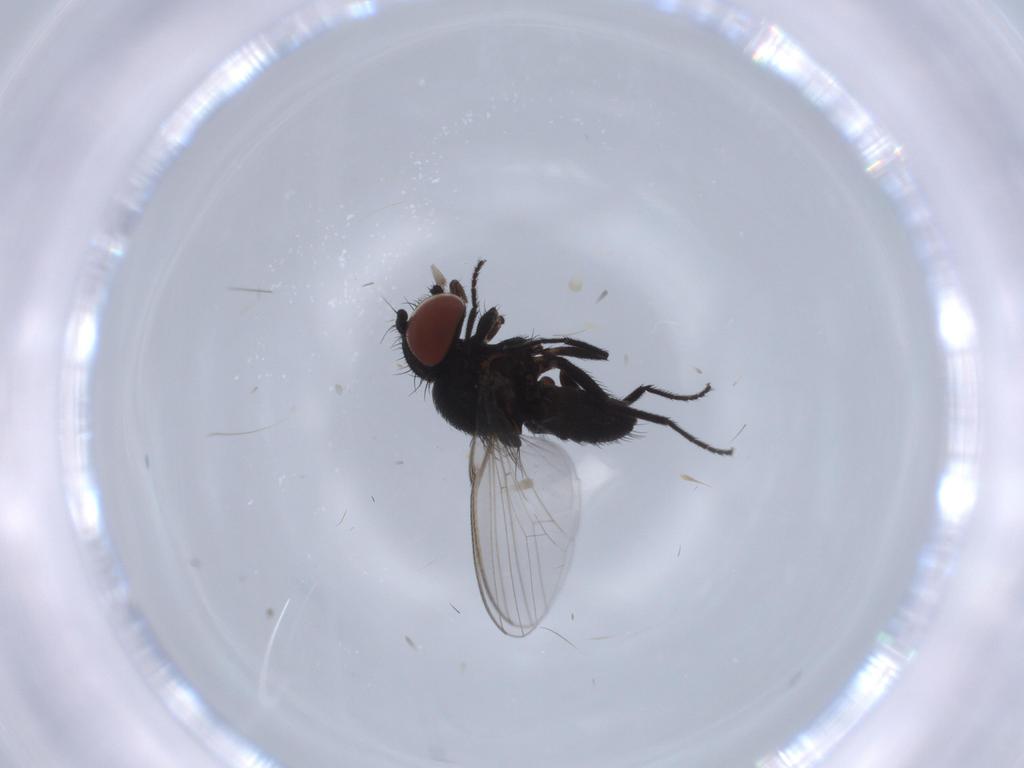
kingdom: Animalia
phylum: Arthropoda
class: Insecta
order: Diptera
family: Milichiidae
